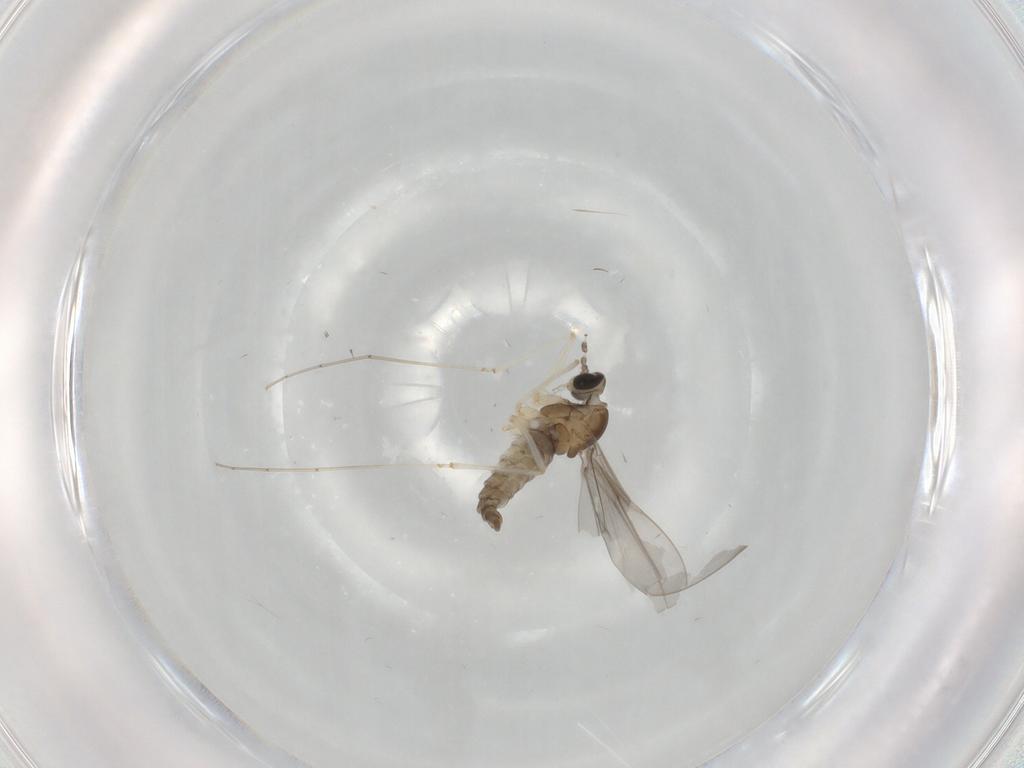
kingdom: Animalia
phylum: Arthropoda
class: Insecta
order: Diptera
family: Cecidomyiidae
